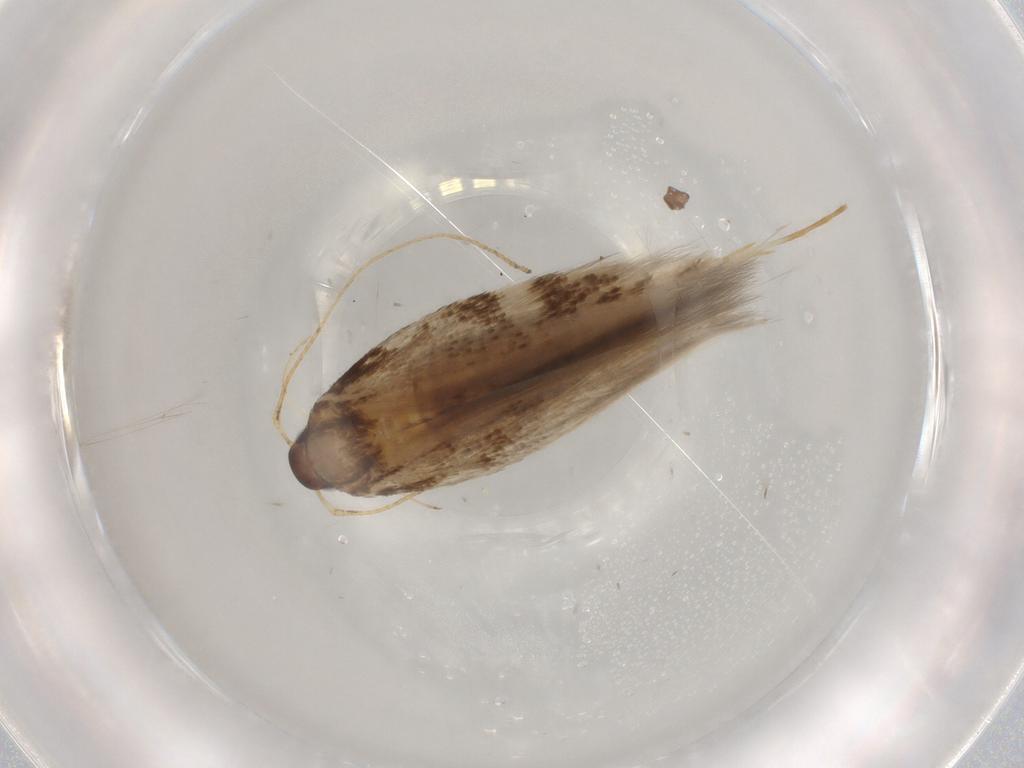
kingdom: Animalia
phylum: Arthropoda
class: Insecta
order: Lepidoptera
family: Noctuidae
